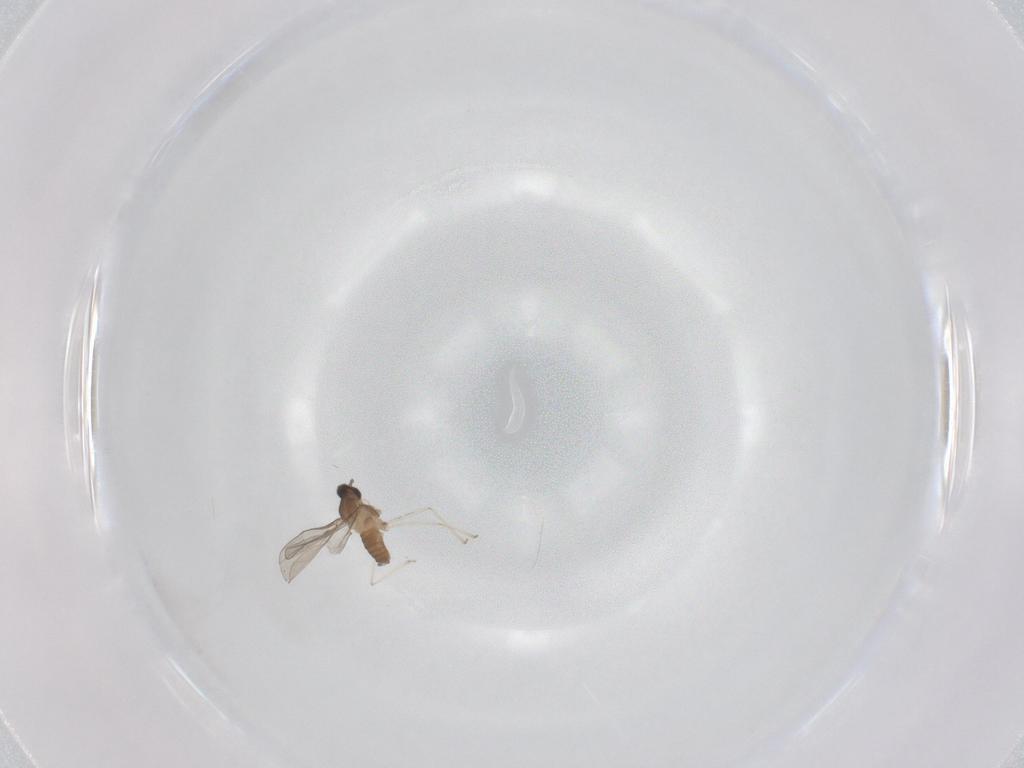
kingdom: Animalia
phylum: Arthropoda
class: Insecta
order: Diptera
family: Cecidomyiidae
